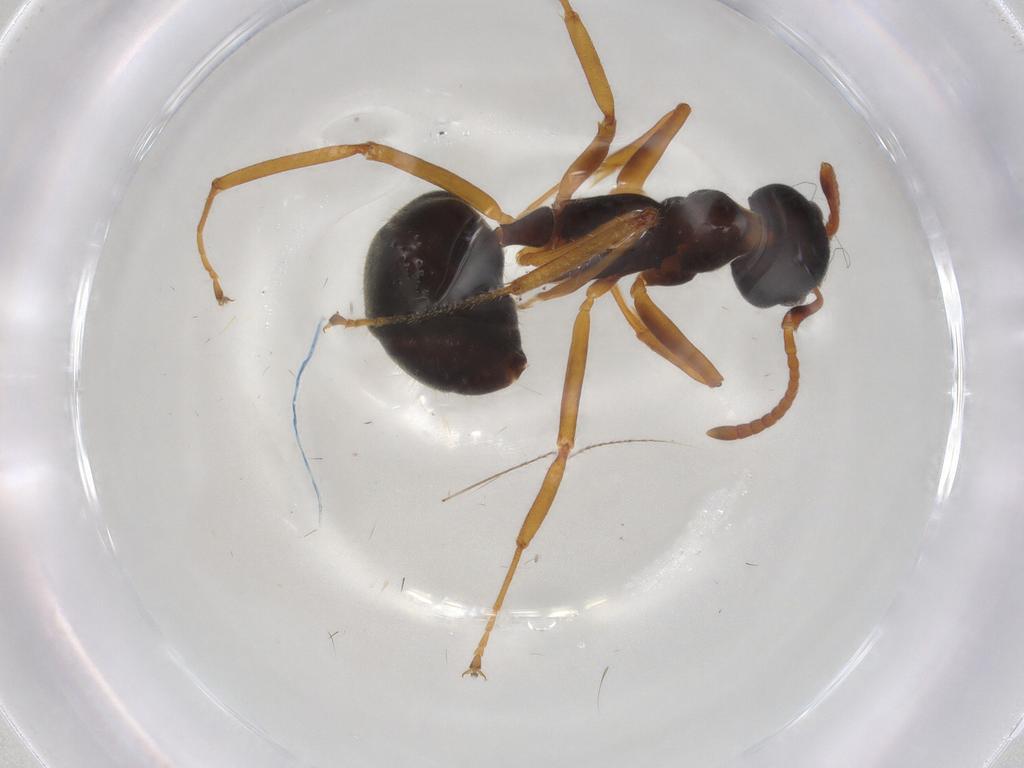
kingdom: Animalia
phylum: Arthropoda
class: Insecta
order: Hymenoptera
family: Formicidae
